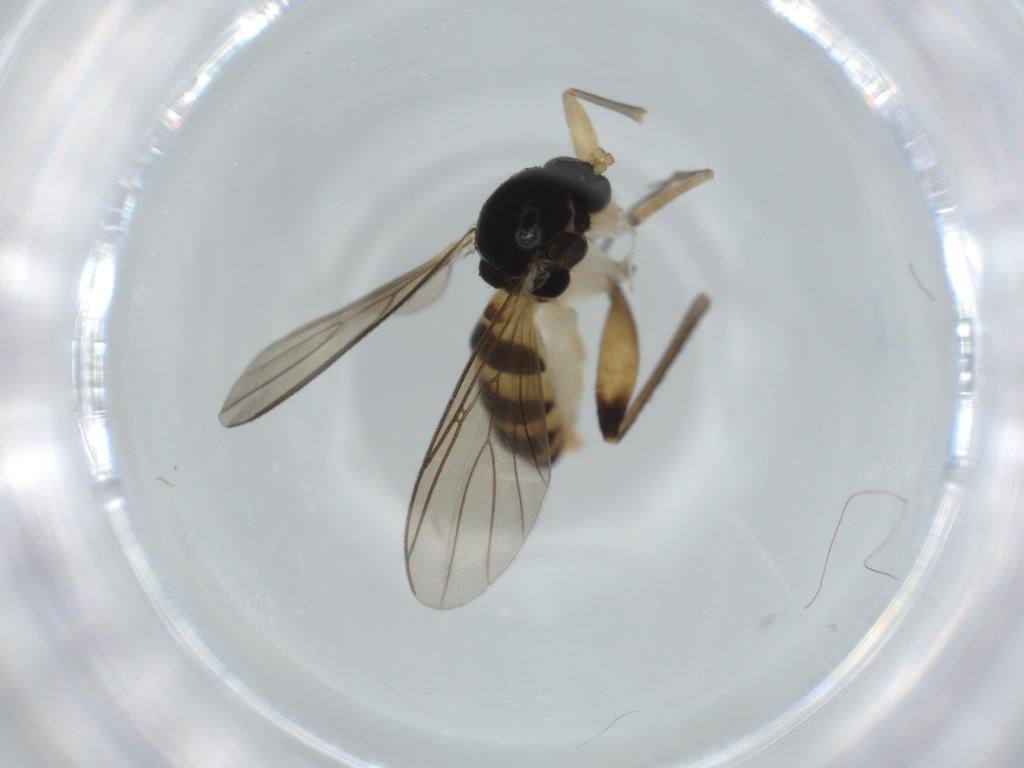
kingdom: Animalia
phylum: Arthropoda
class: Insecta
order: Diptera
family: Mycetophilidae
